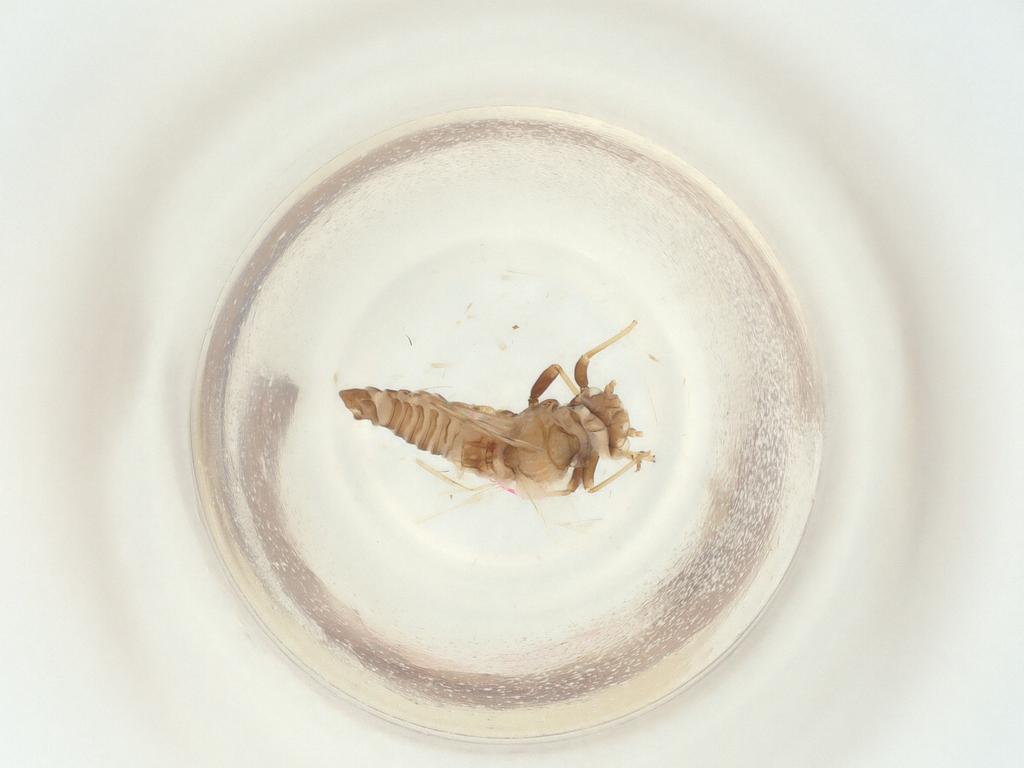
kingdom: Animalia
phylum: Arthropoda
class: Insecta
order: Hemiptera
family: Psyllidae
